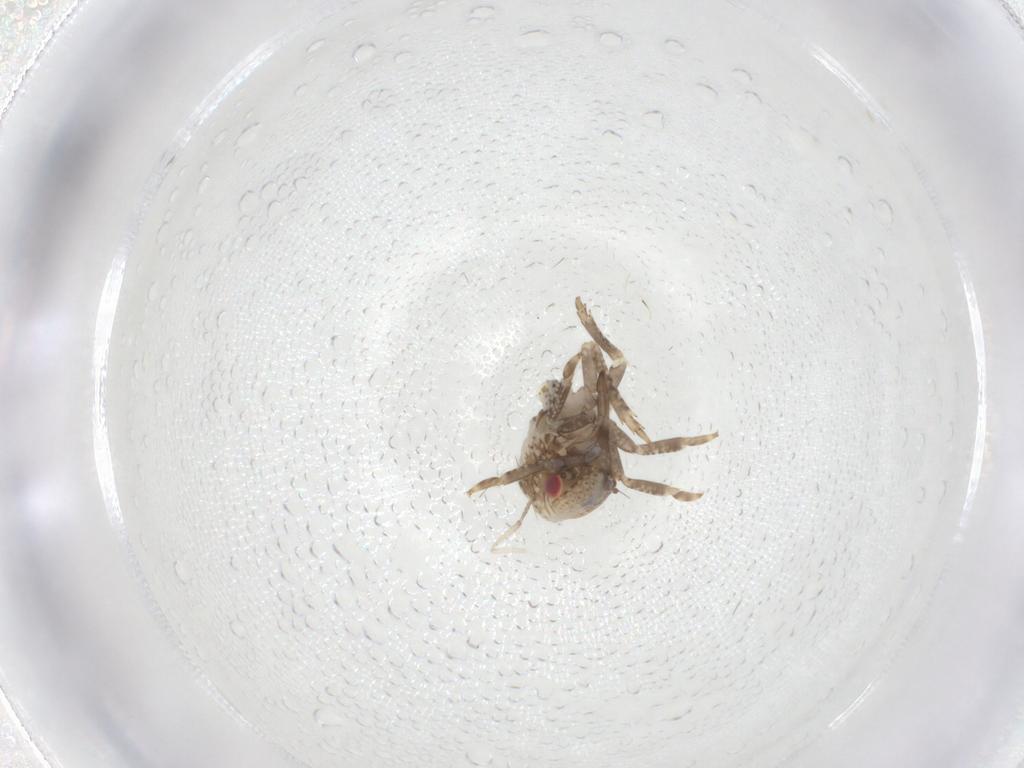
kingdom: Animalia
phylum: Arthropoda
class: Insecta
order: Hemiptera
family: Acanaloniidae
